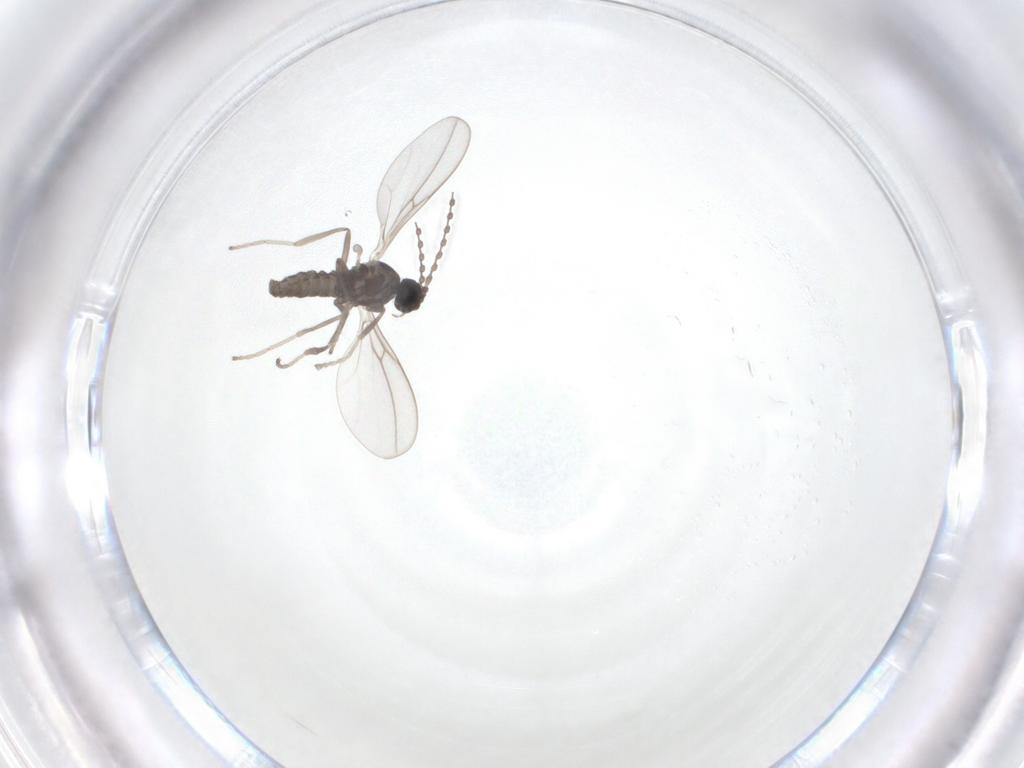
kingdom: Animalia
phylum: Arthropoda
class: Insecta
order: Diptera
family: Cecidomyiidae
